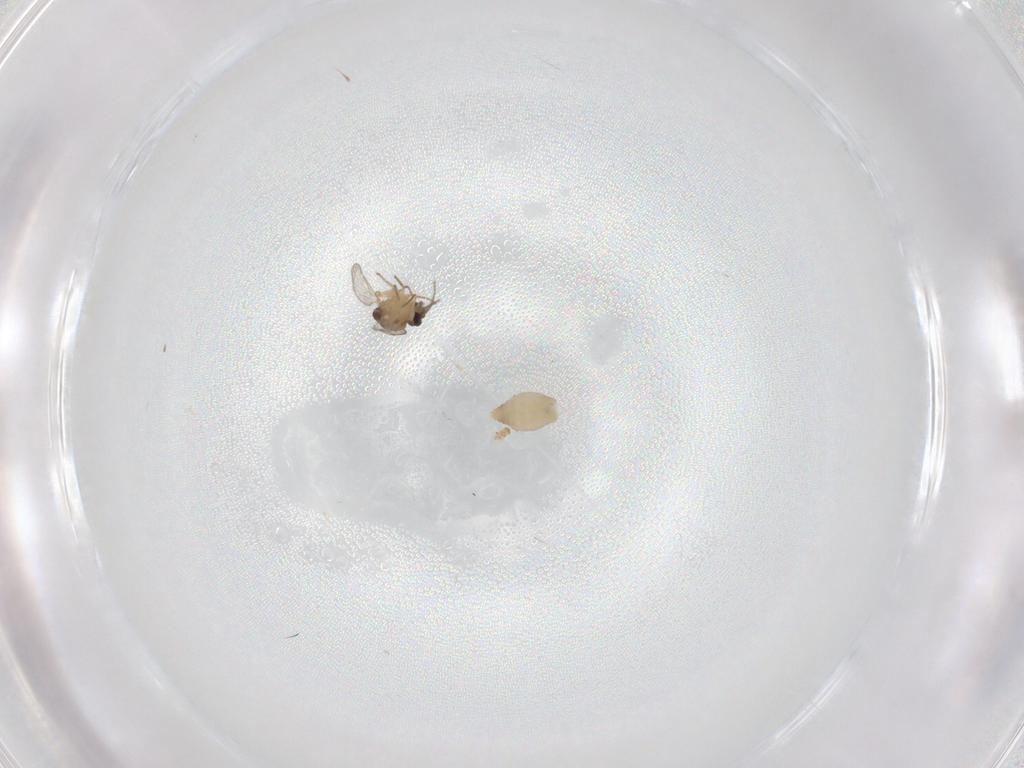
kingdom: Animalia
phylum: Arthropoda
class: Insecta
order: Diptera
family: Ceratopogonidae
